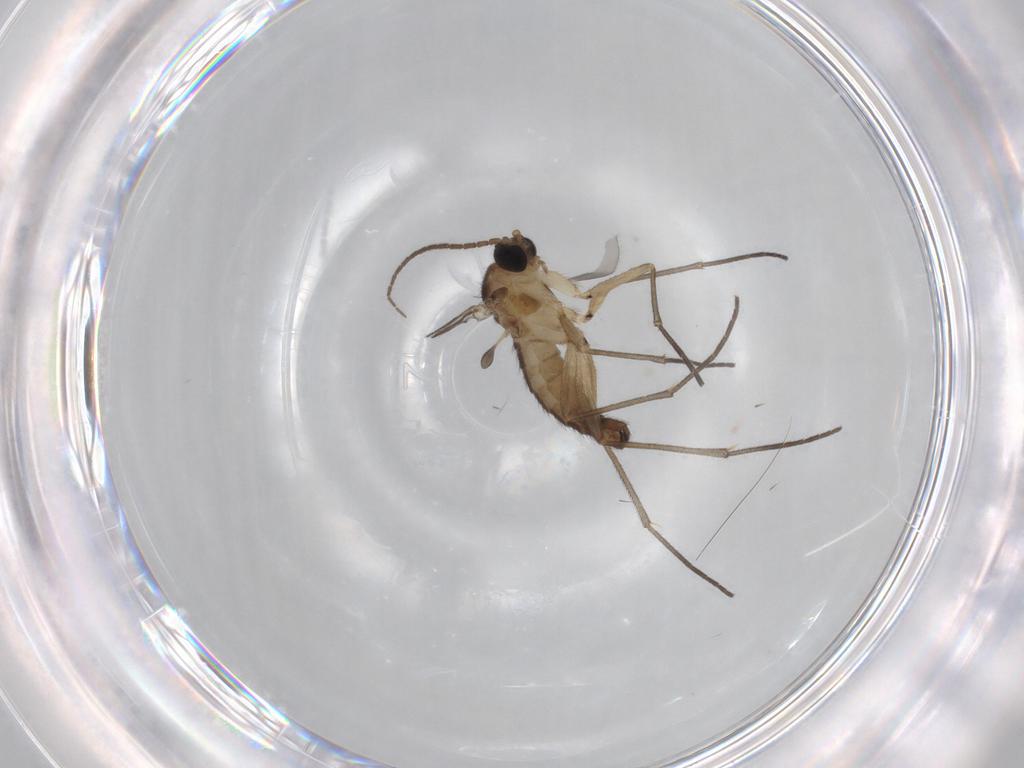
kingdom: Animalia
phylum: Arthropoda
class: Insecta
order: Diptera
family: Sciaridae
